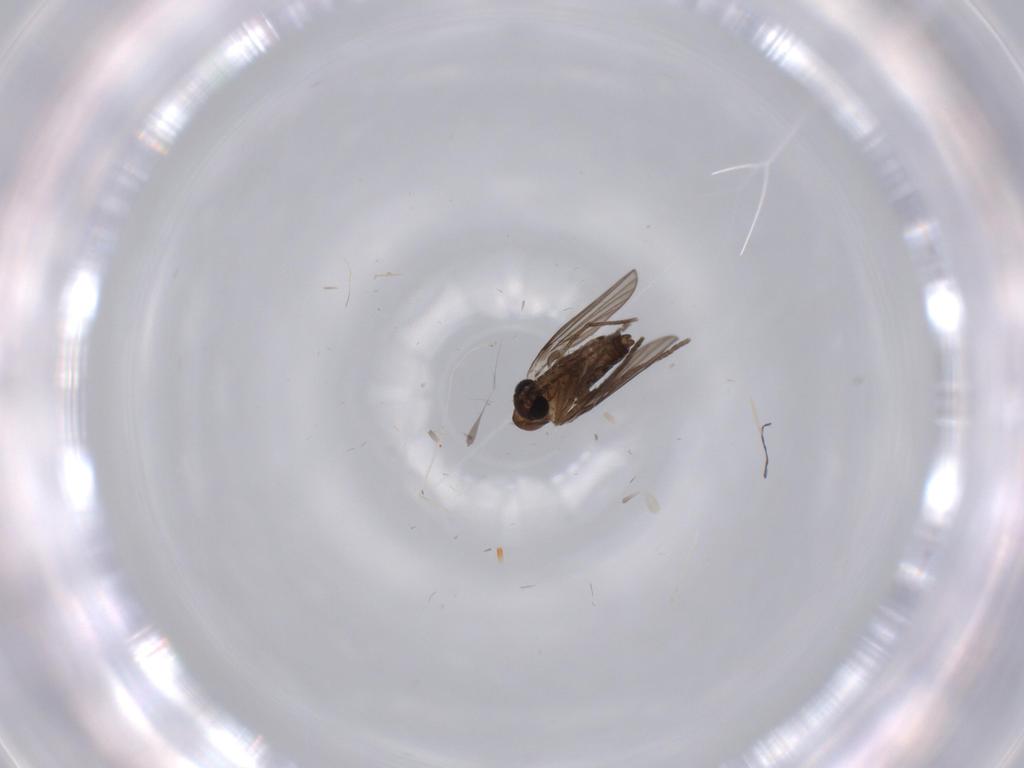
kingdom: Animalia
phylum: Arthropoda
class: Insecta
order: Diptera
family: Cecidomyiidae
